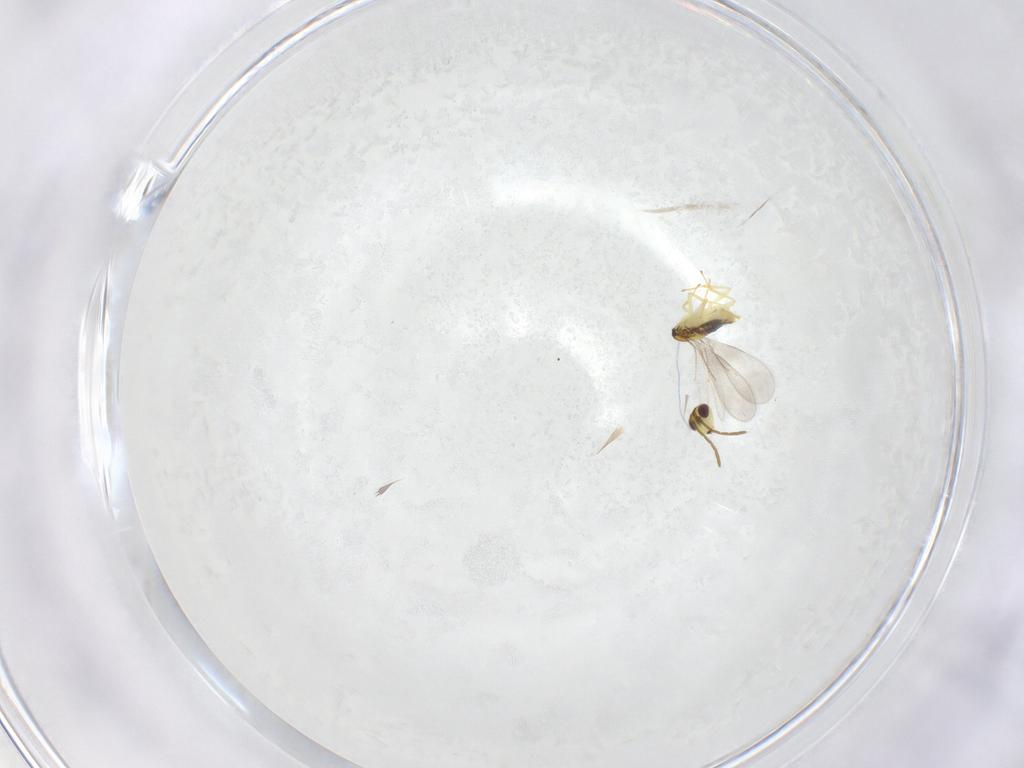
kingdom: Animalia
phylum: Arthropoda
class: Insecta
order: Hymenoptera
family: Aphelinidae
